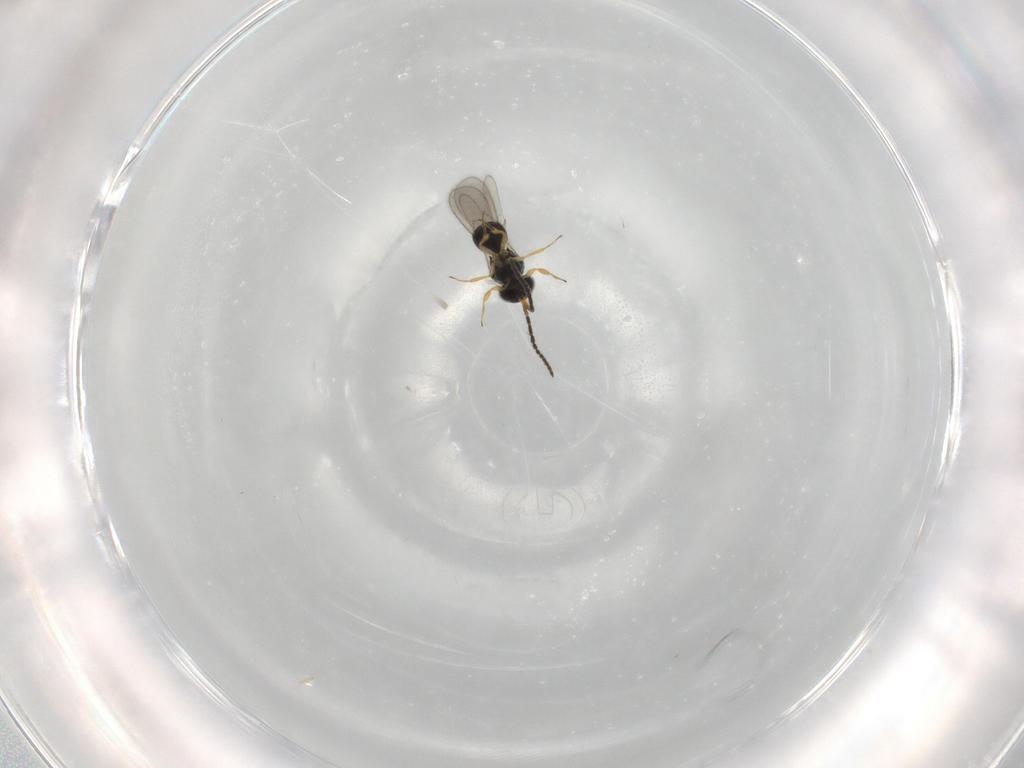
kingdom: Animalia
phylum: Arthropoda
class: Insecta
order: Hymenoptera
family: Scelionidae
